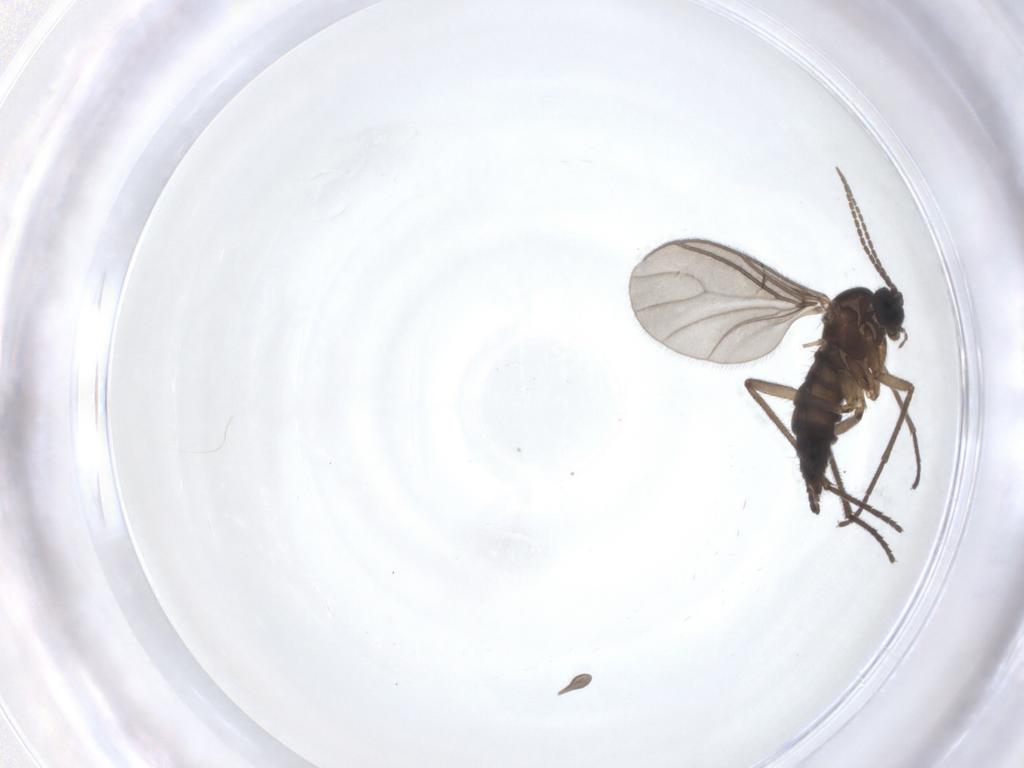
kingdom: Animalia
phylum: Arthropoda
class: Insecta
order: Diptera
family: Sciaridae
